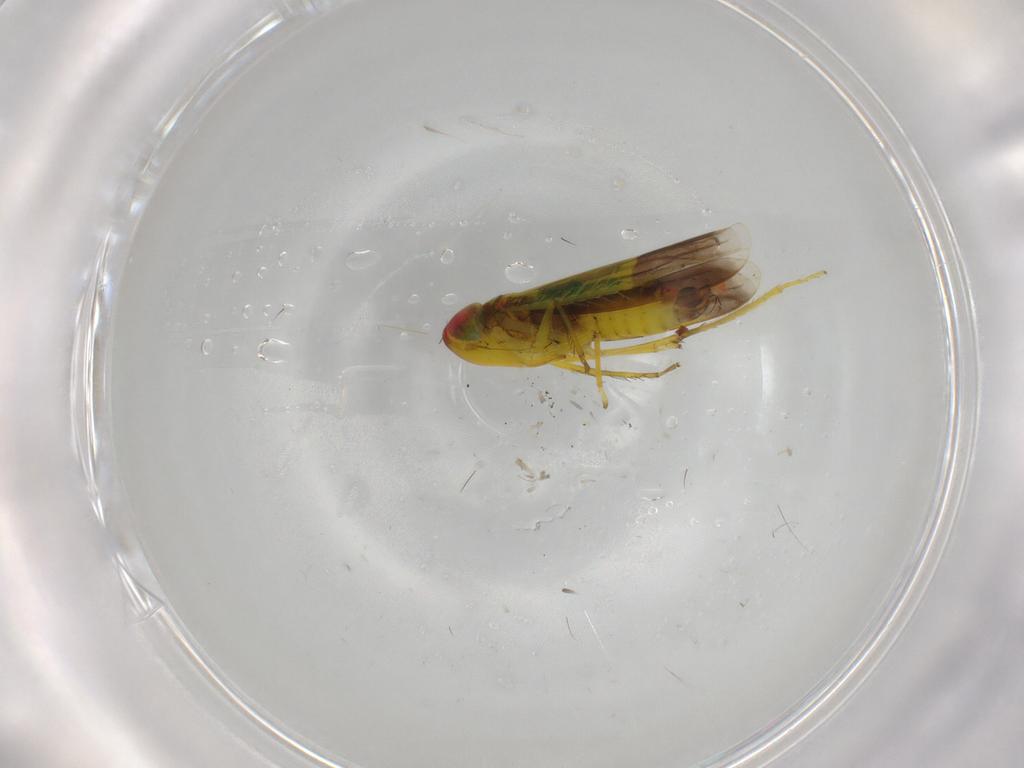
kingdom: Animalia
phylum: Arthropoda
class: Insecta
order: Hemiptera
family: Cicadellidae
